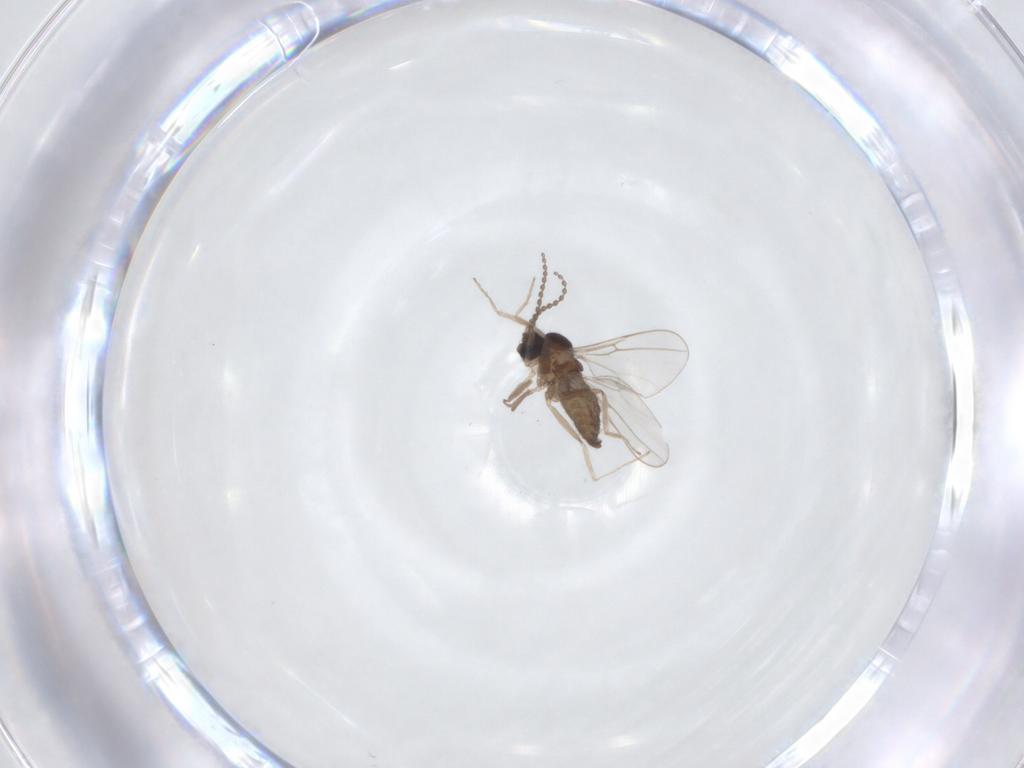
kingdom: Animalia
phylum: Arthropoda
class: Insecta
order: Diptera
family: Cecidomyiidae
